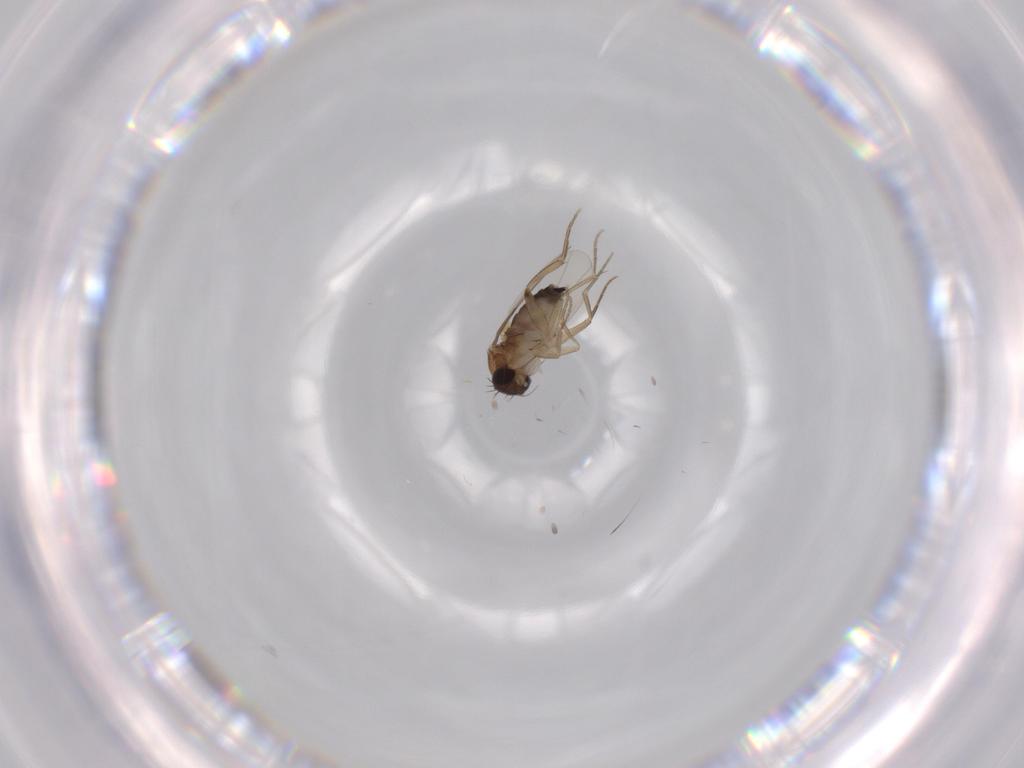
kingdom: Animalia
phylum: Arthropoda
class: Insecta
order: Diptera
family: Phoridae
